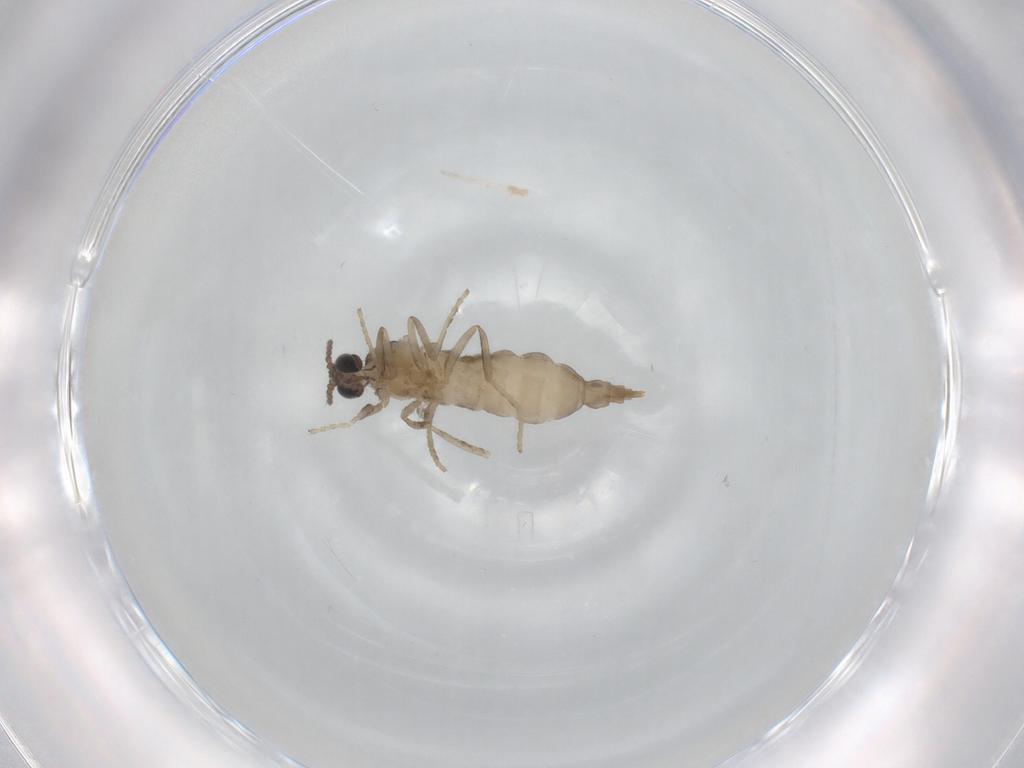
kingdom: Animalia
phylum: Arthropoda
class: Insecta
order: Diptera
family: Cecidomyiidae
